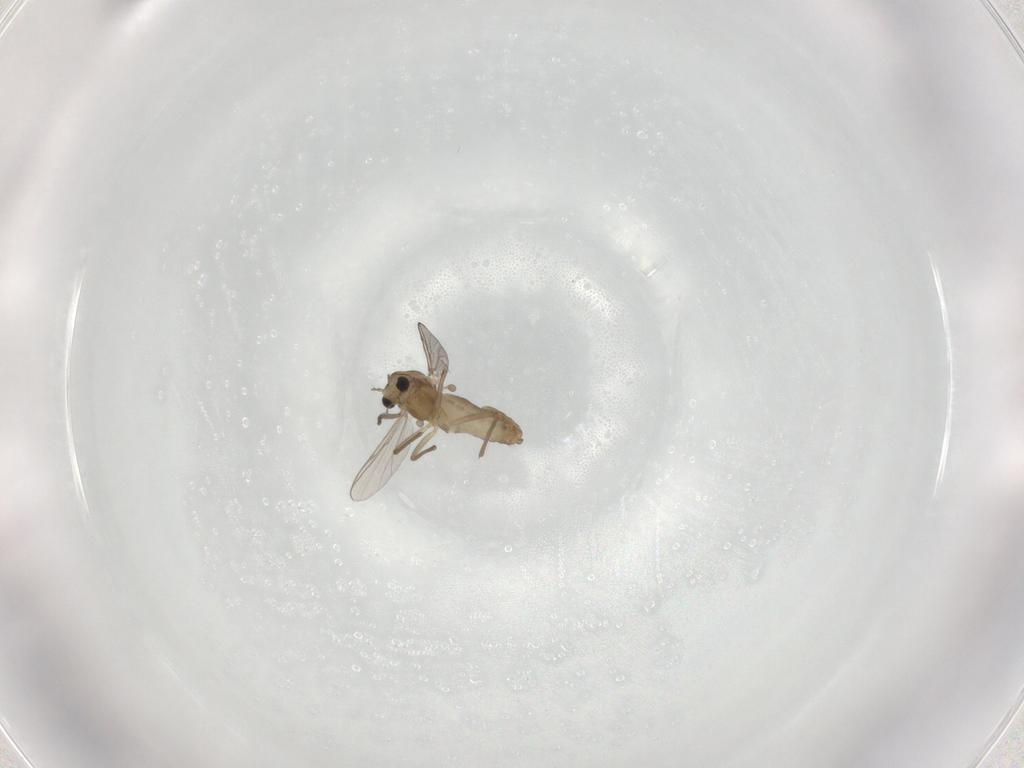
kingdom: Animalia
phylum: Arthropoda
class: Insecta
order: Diptera
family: Chironomidae
